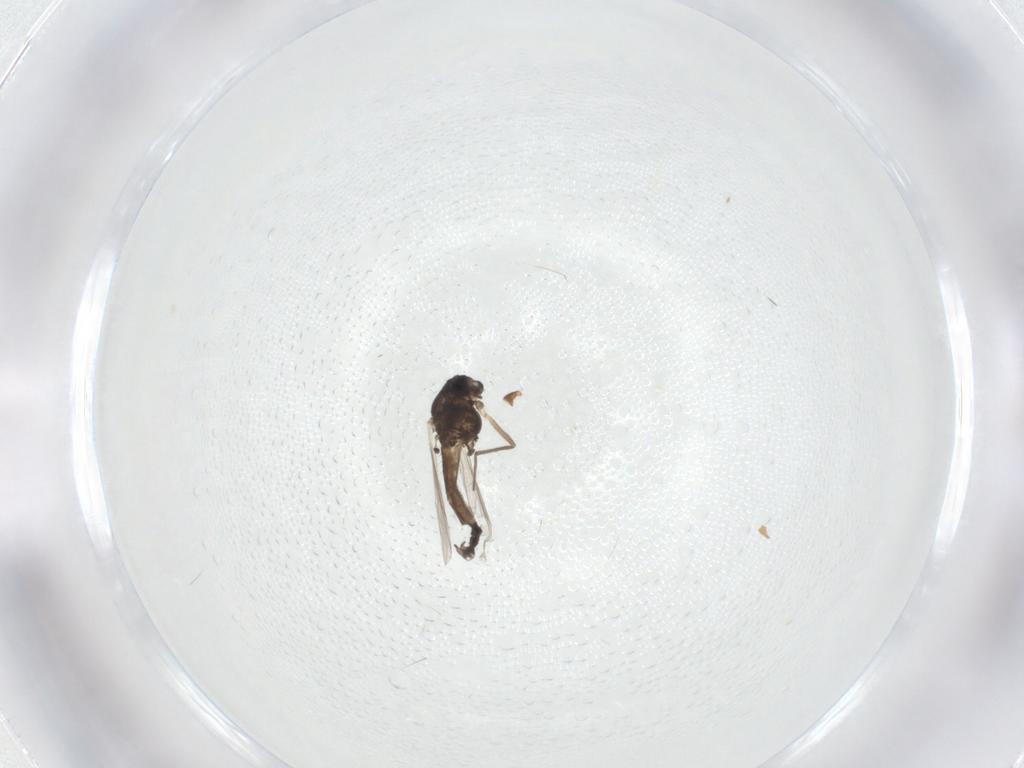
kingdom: Animalia
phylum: Arthropoda
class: Insecta
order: Diptera
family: Chironomidae
